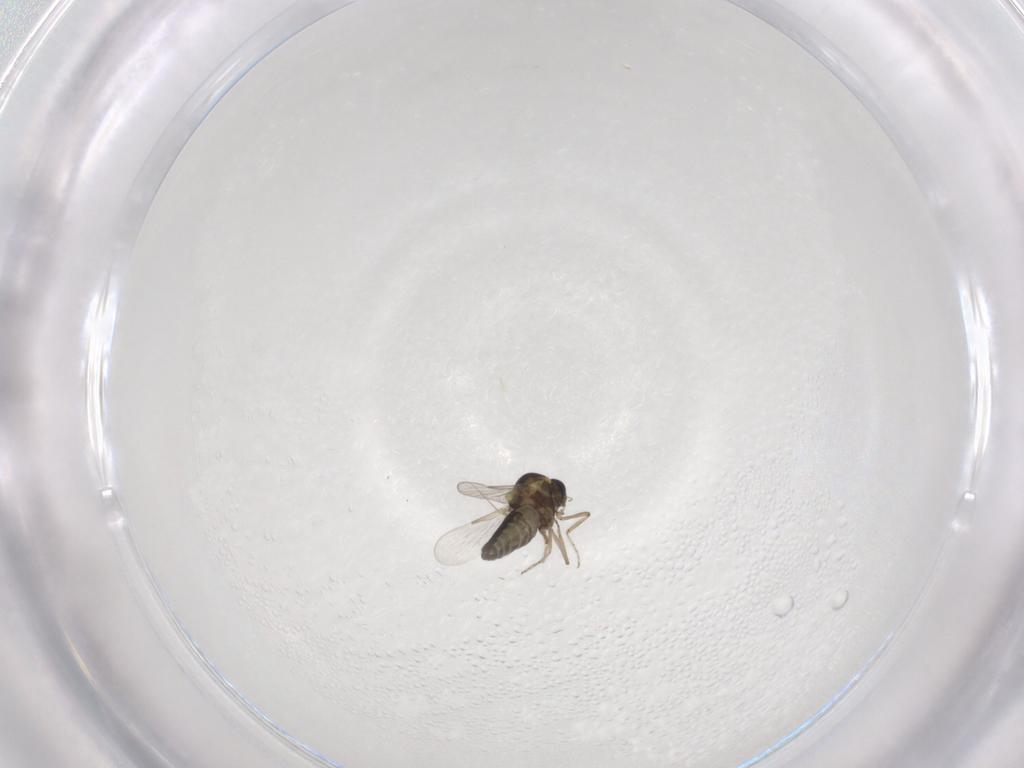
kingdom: Animalia
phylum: Arthropoda
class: Insecta
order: Diptera
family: Ceratopogonidae
